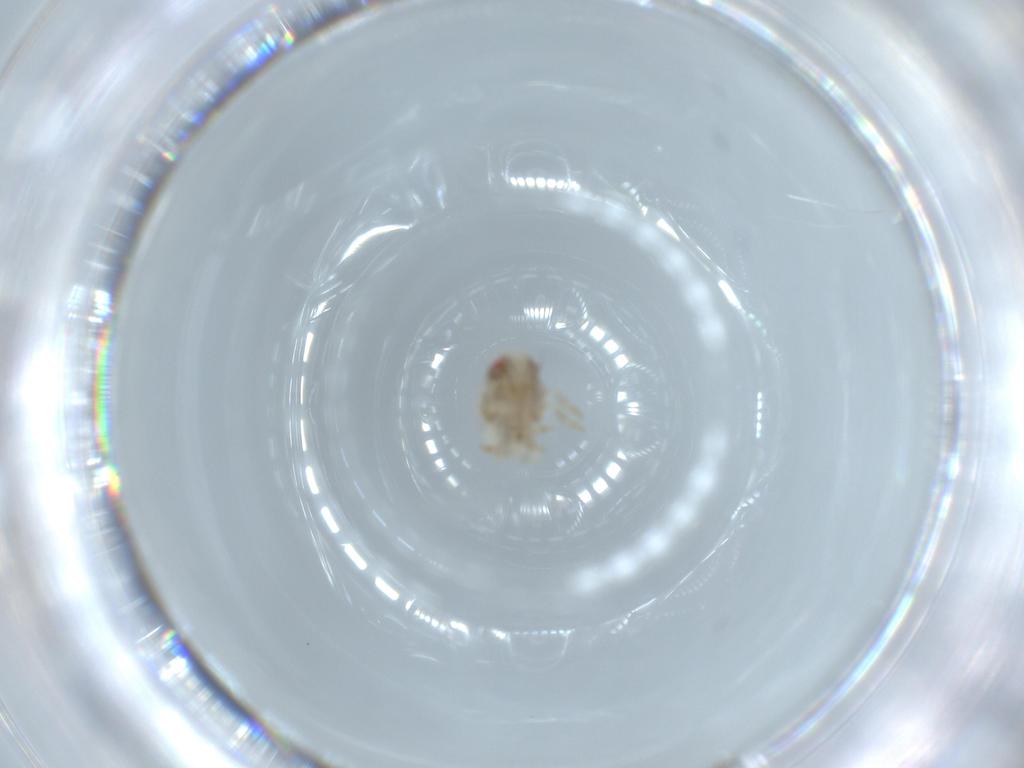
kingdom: Animalia
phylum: Arthropoda
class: Insecta
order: Hemiptera
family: Acanaloniidae
